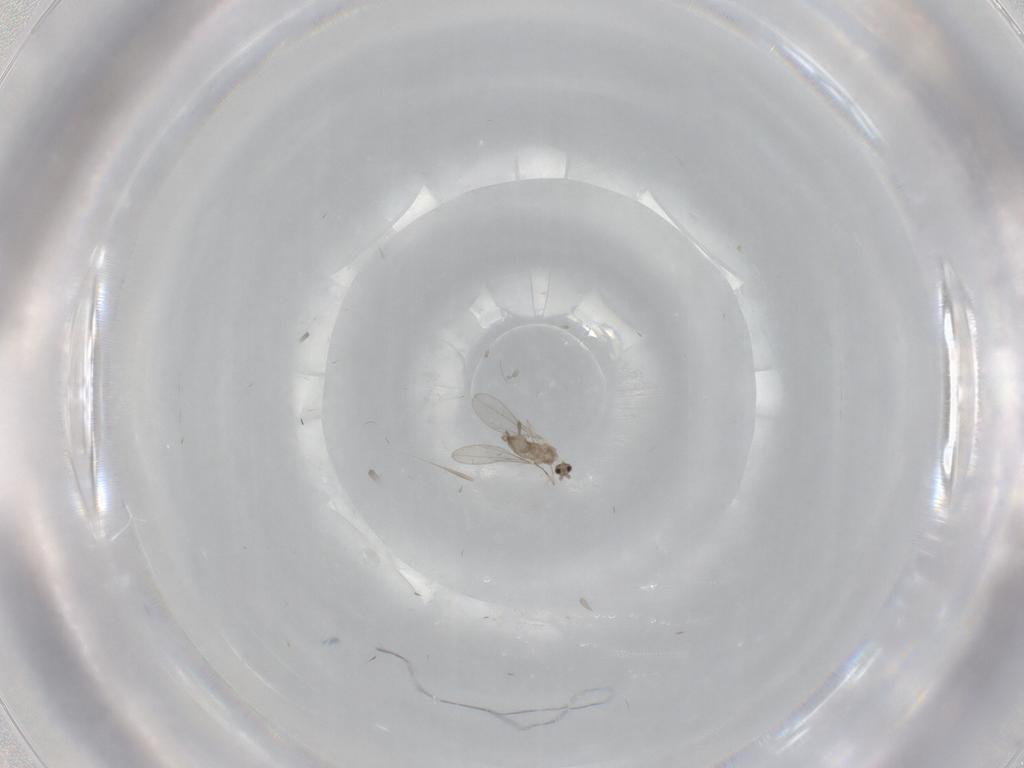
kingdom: Animalia
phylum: Arthropoda
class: Insecta
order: Diptera
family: Cecidomyiidae
